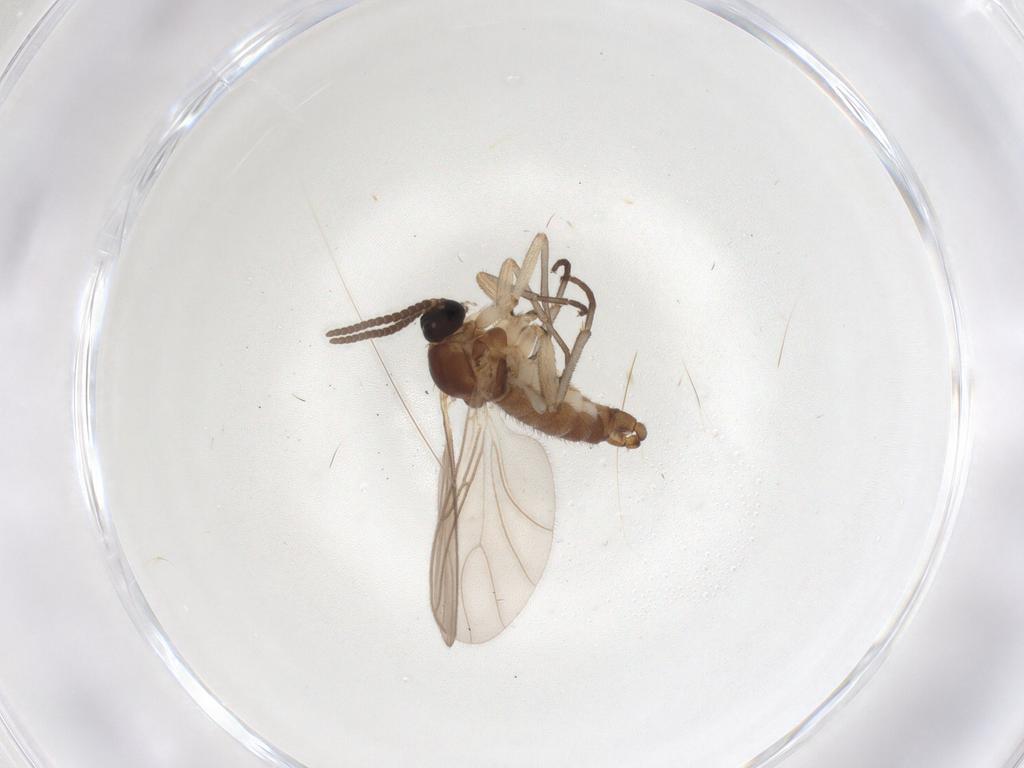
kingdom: Animalia
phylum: Arthropoda
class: Insecta
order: Diptera
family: Sciaridae
